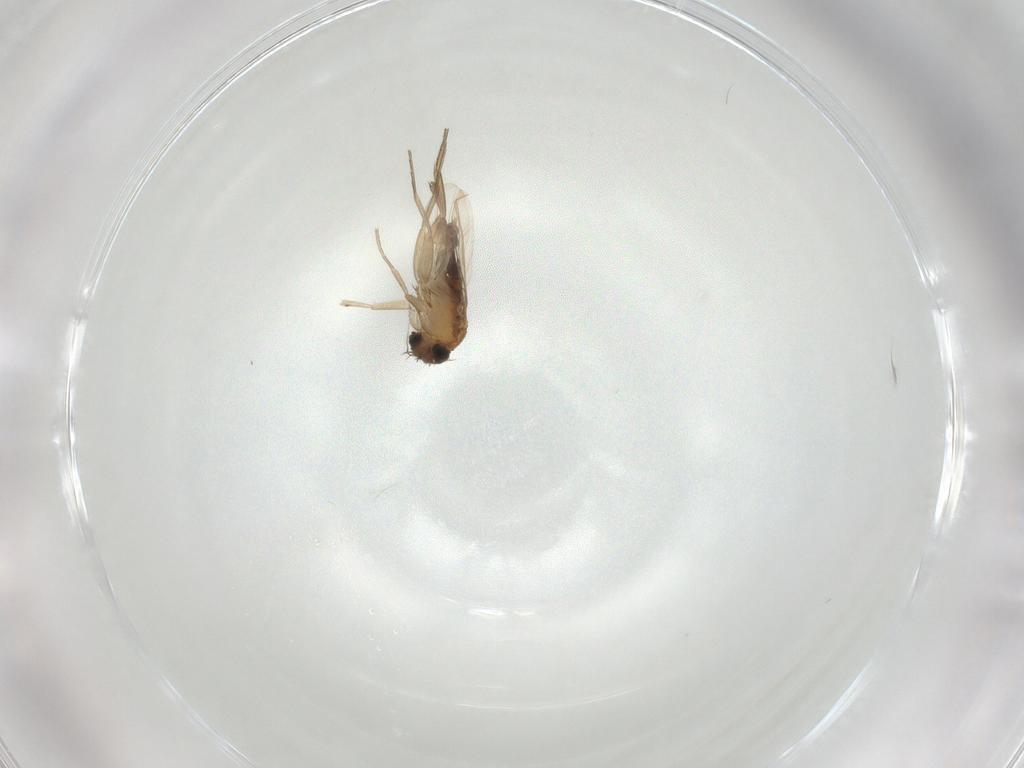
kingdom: Animalia
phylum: Arthropoda
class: Insecta
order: Diptera
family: Phoridae
